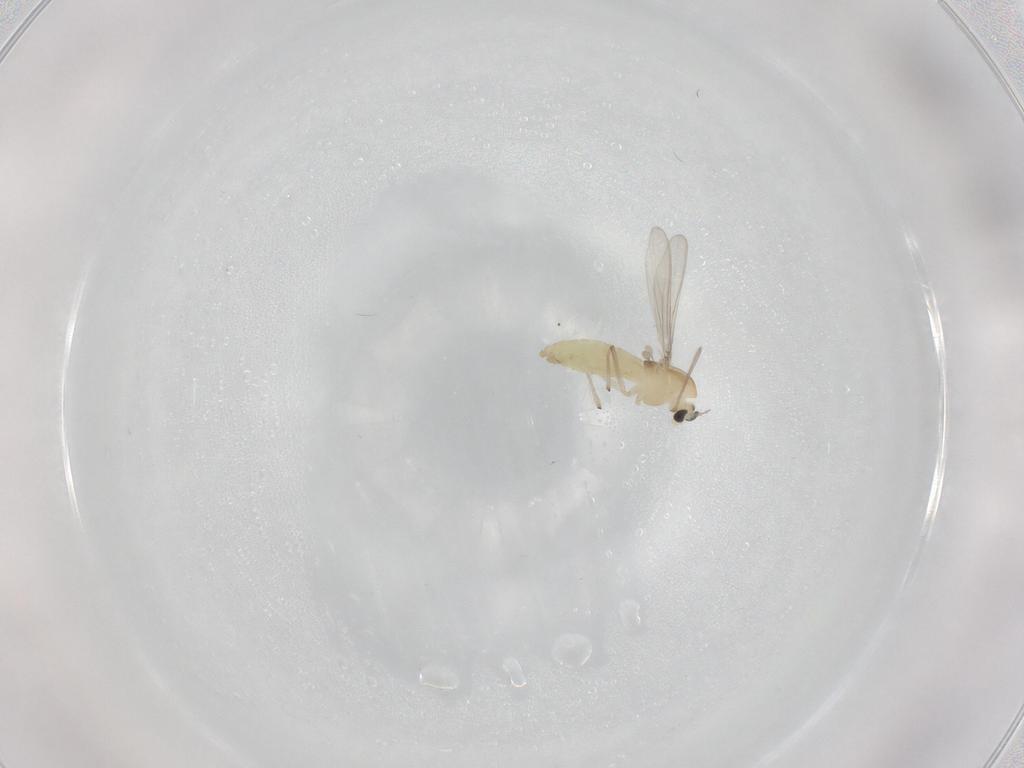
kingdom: Animalia
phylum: Arthropoda
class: Insecta
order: Diptera
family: Chironomidae
